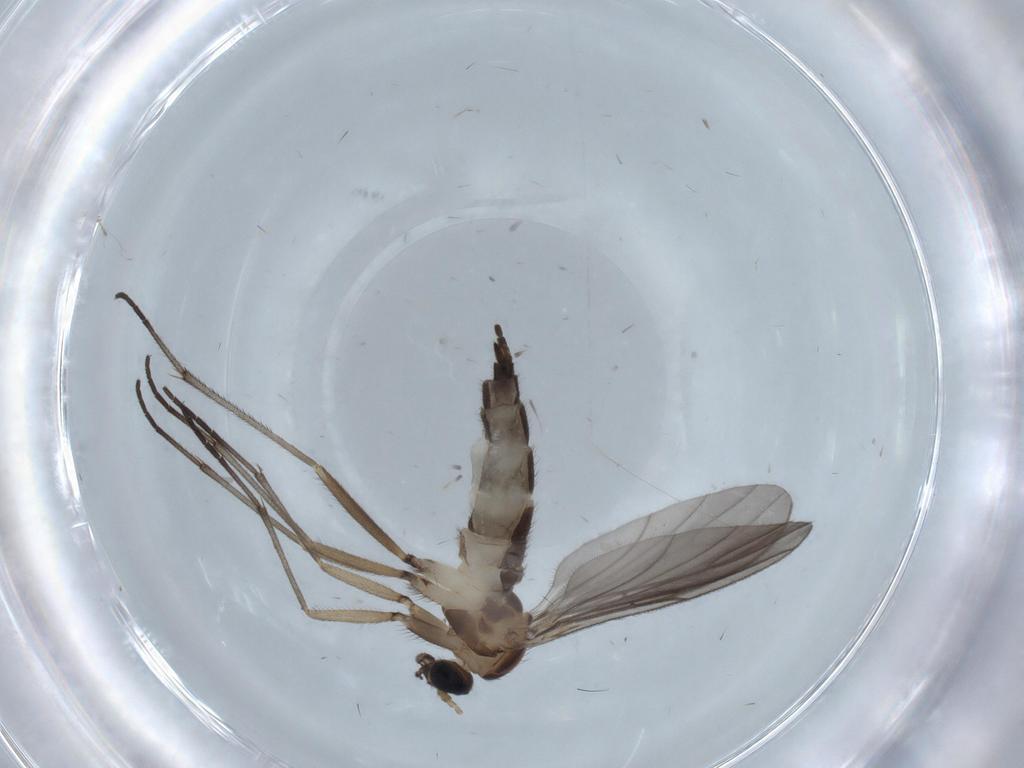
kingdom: Animalia
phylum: Arthropoda
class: Insecta
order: Diptera
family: Sciaridae
